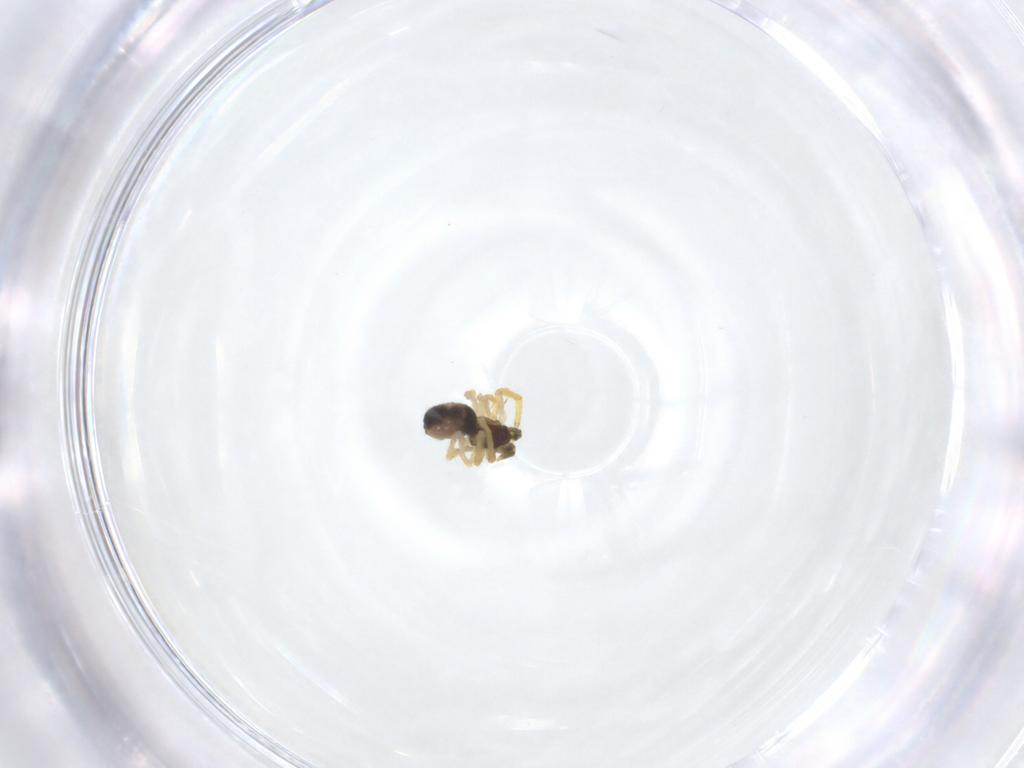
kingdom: Animalia
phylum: Arthropoda
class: Arachnida
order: Araneae
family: Theridiidae
